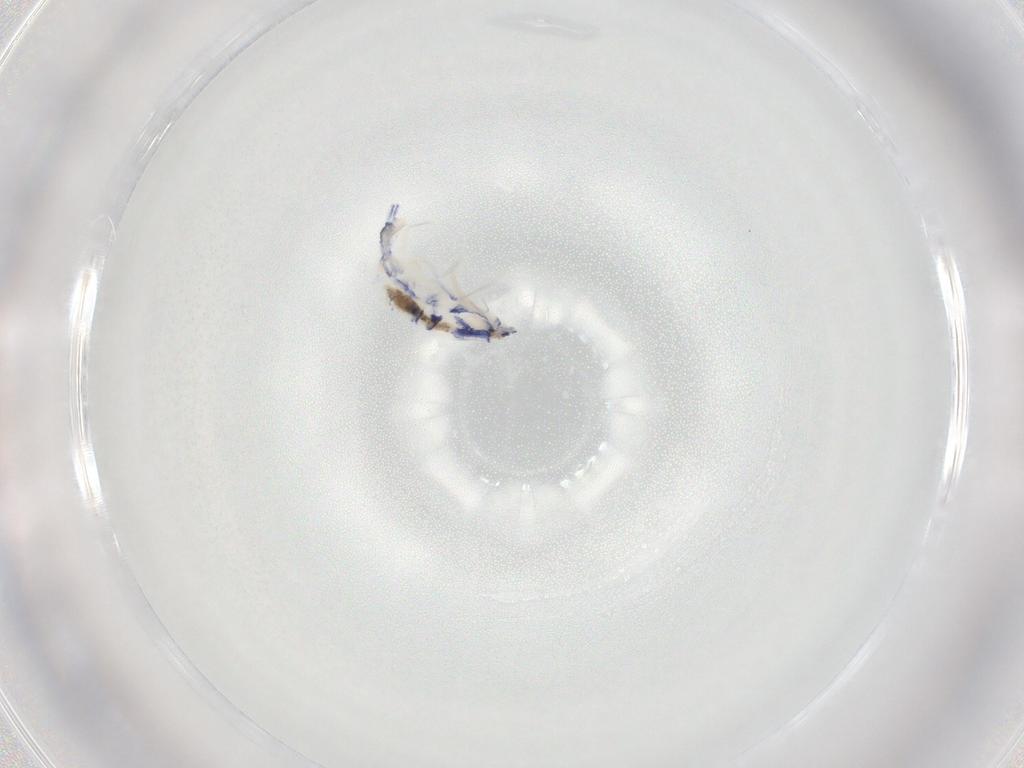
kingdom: Animalia
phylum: Arthropoda
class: Collembola
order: Entomobryomorpha
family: Entomobryidae
